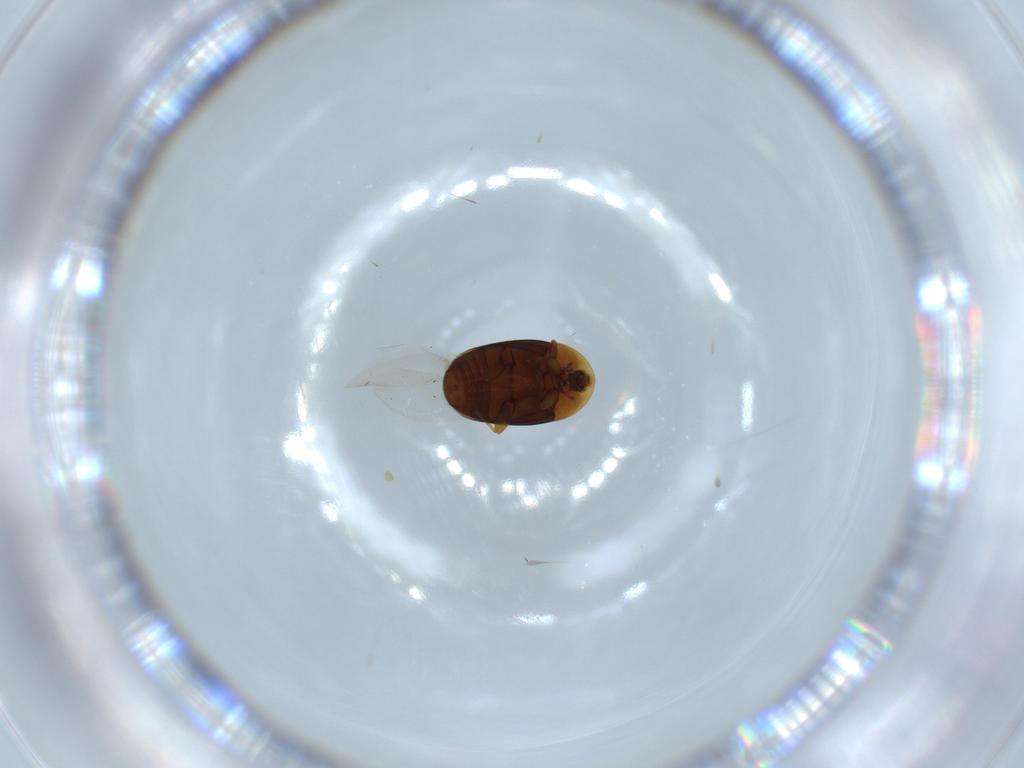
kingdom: Animalia
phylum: Arthropoda
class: Insecta
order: Coleoptera
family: Corylophidae
